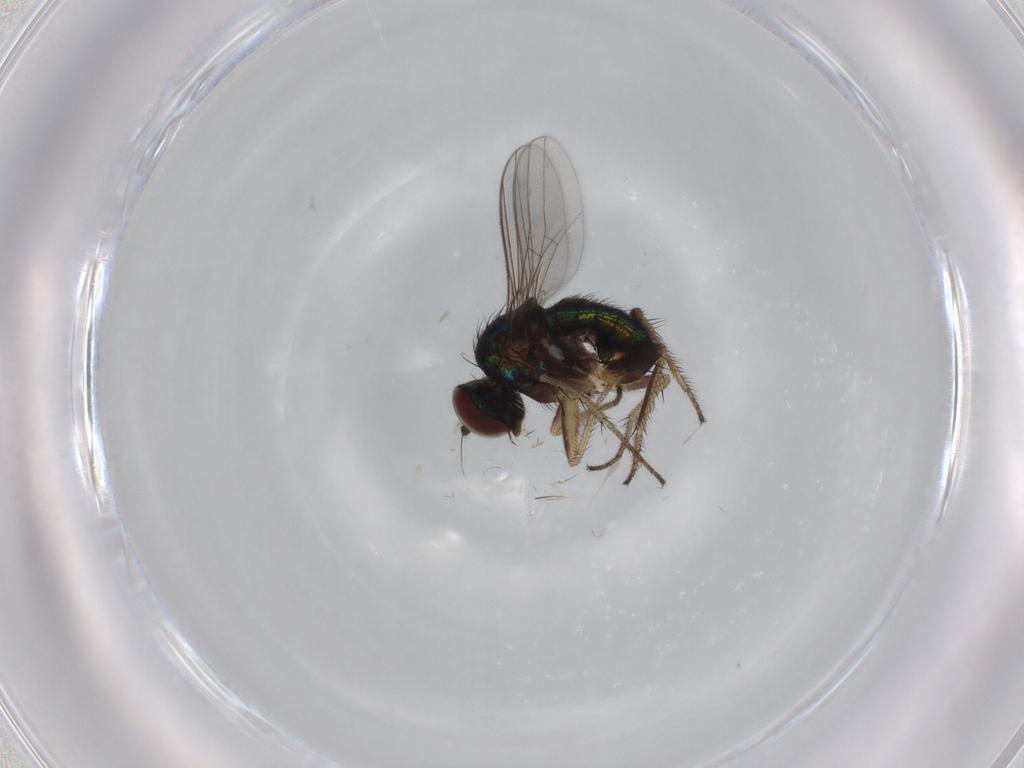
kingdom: Animalia
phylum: Arthropoda
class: Insecta
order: Diptera
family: Dolichopodidae
